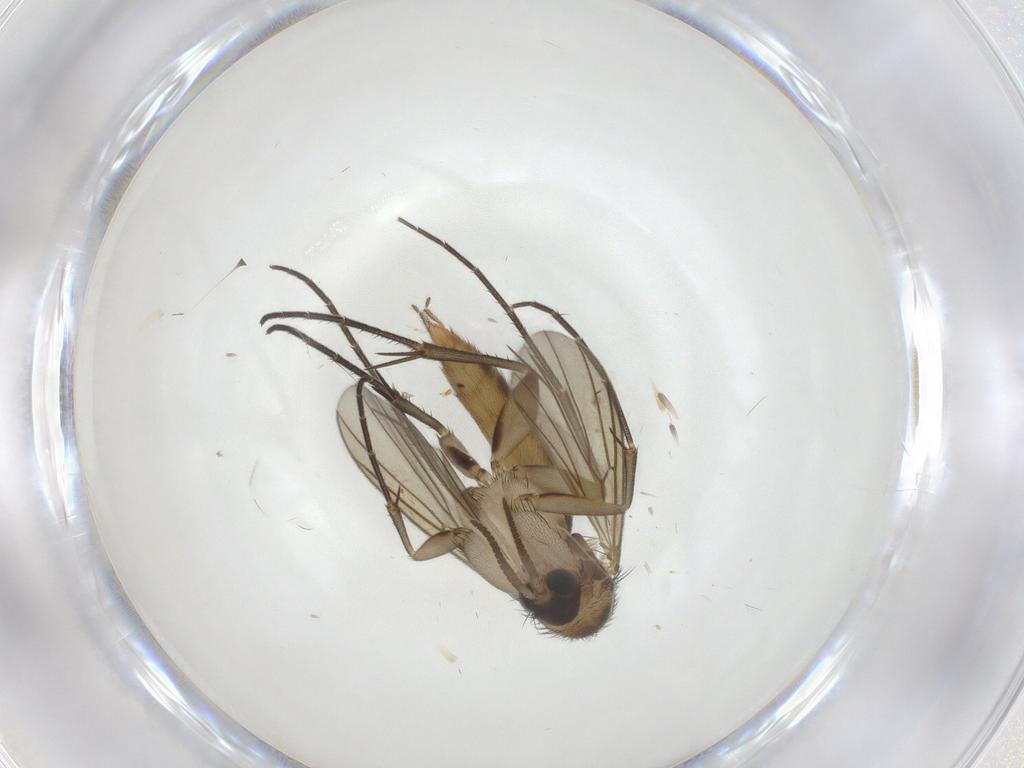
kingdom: Animalia
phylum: Arthropoda
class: Insecta
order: Diptera
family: Mycetophilidae
